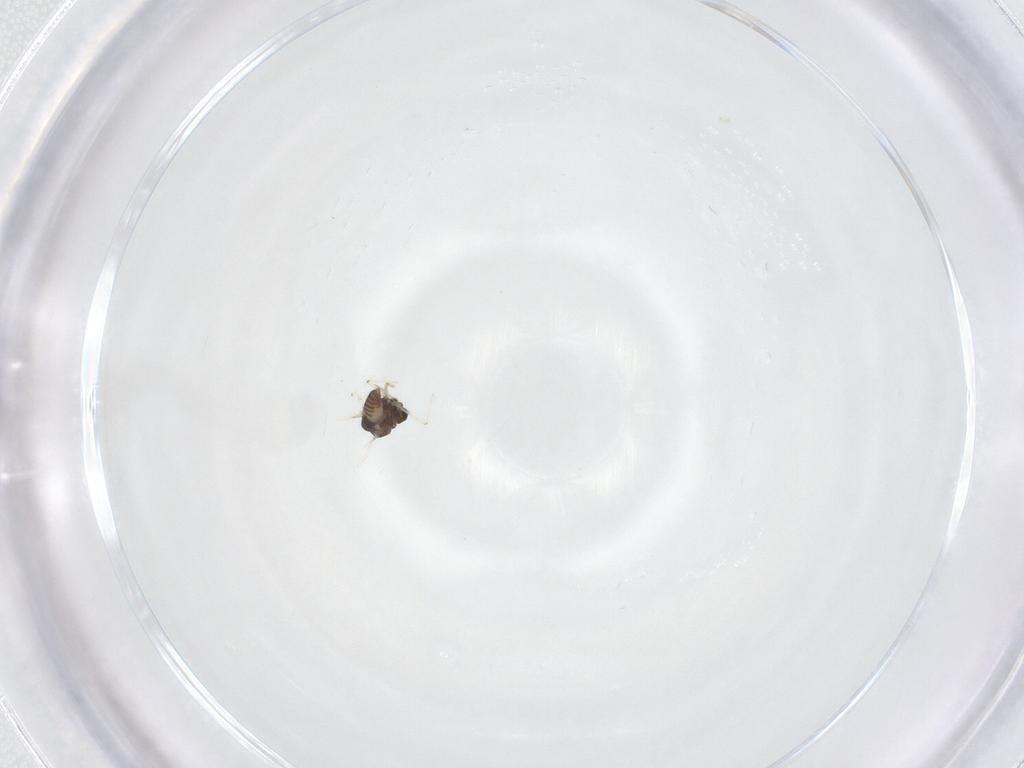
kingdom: Animalia
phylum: Arthropoda
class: Insecta
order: Diptera
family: Chironomidae
